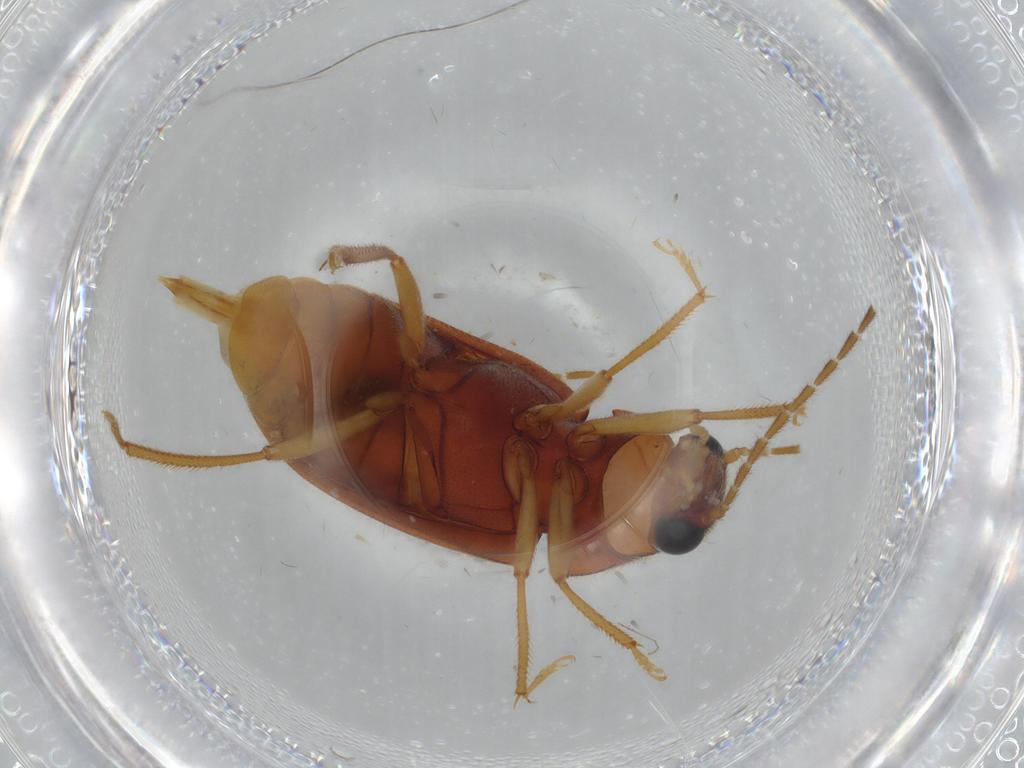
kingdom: Animalia
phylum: Arthropoda
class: Insecta
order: Coleoptera
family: Ptilodactylidae
